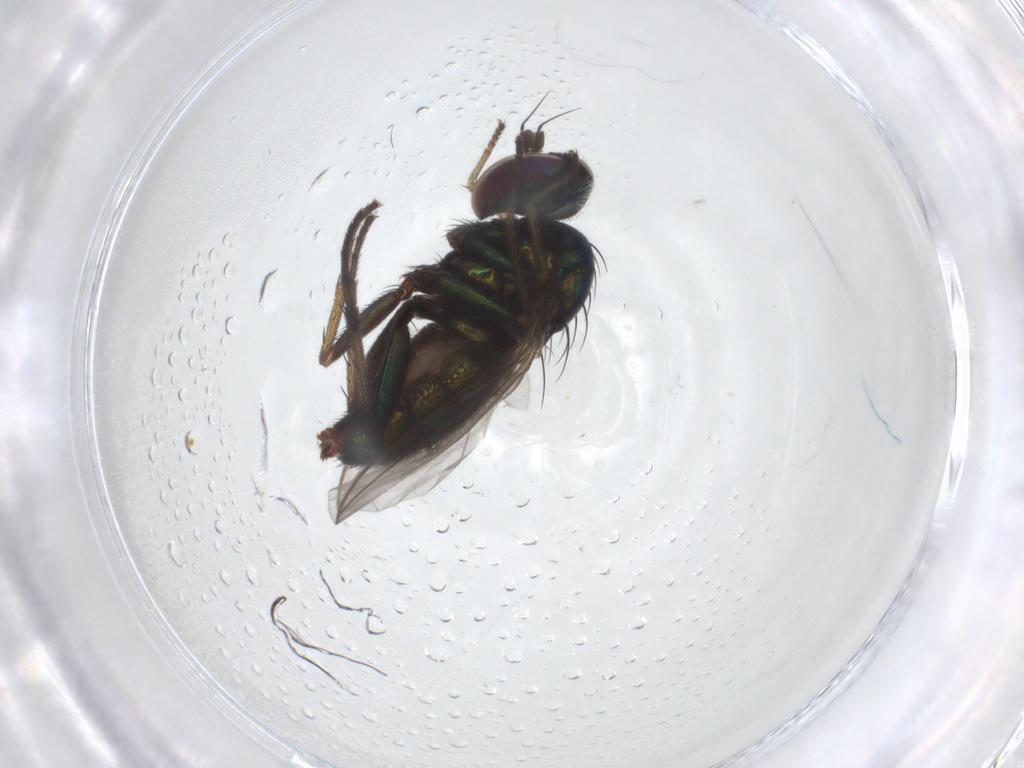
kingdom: Animalia
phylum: Arthropoda
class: Insecta
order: Diptera
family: Dolichopodidae
